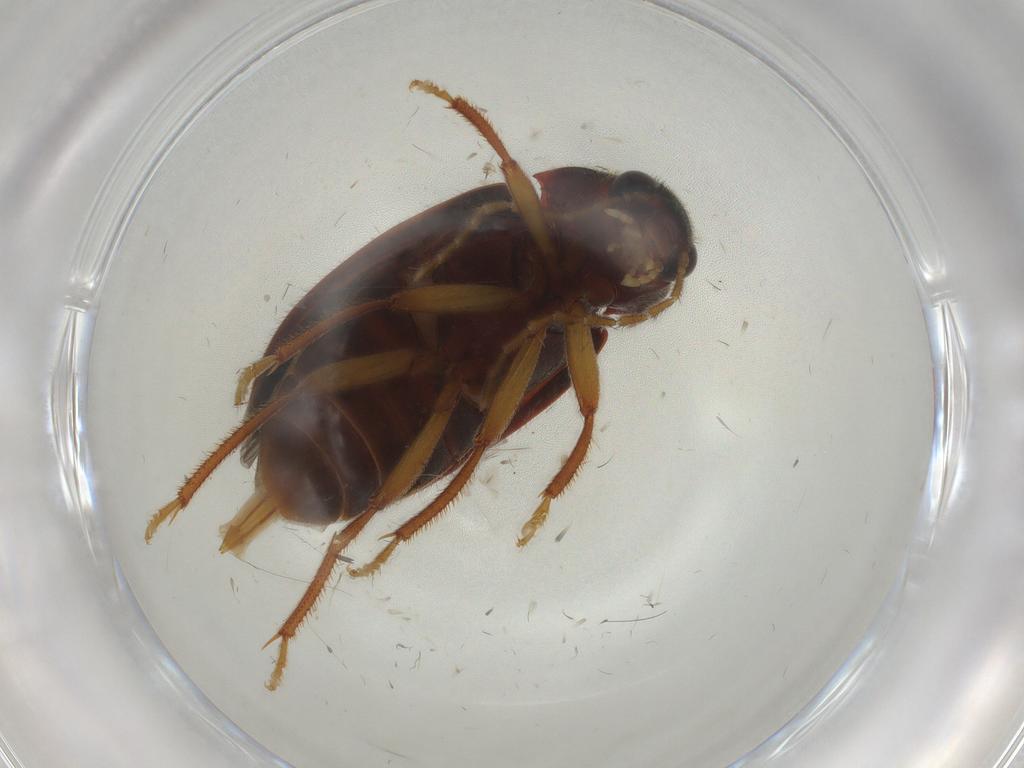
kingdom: Animalia
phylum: Arthropoda
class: Insecta
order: Coleoptera
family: Ptilodactylidae
